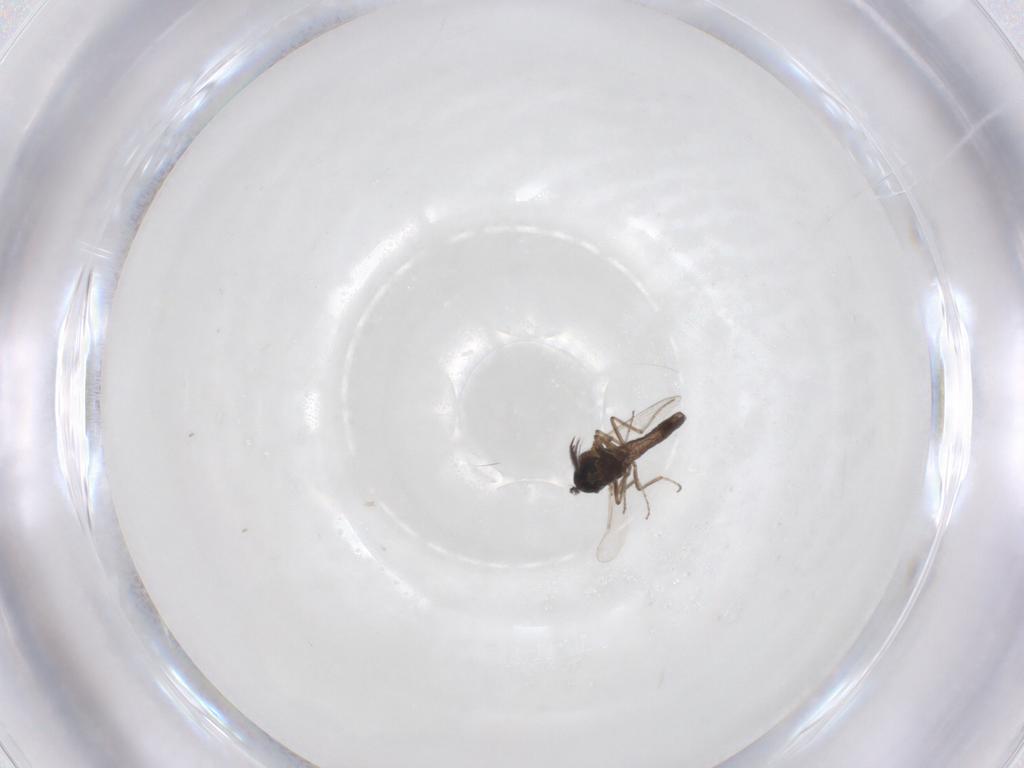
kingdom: Animalia
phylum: Arthropoda
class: Insecta
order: Diptera
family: Ceratopogonidae
